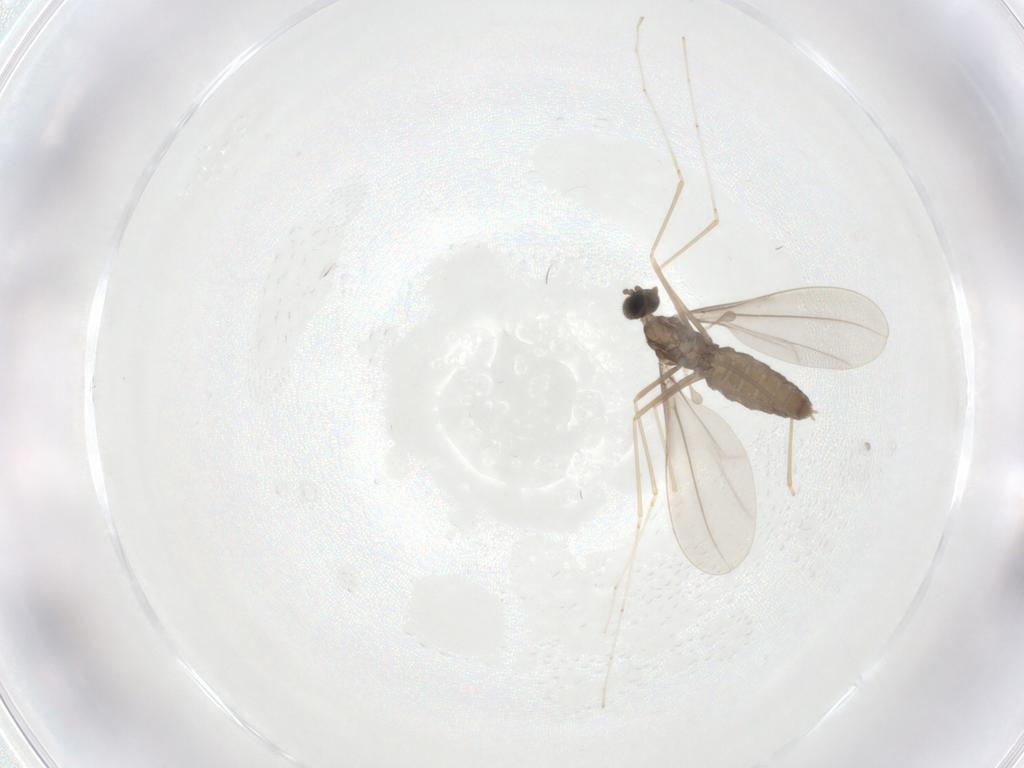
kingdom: Animalia
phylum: Arthropoda
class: Insecta
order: Diptera
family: Cecidomyiidae
